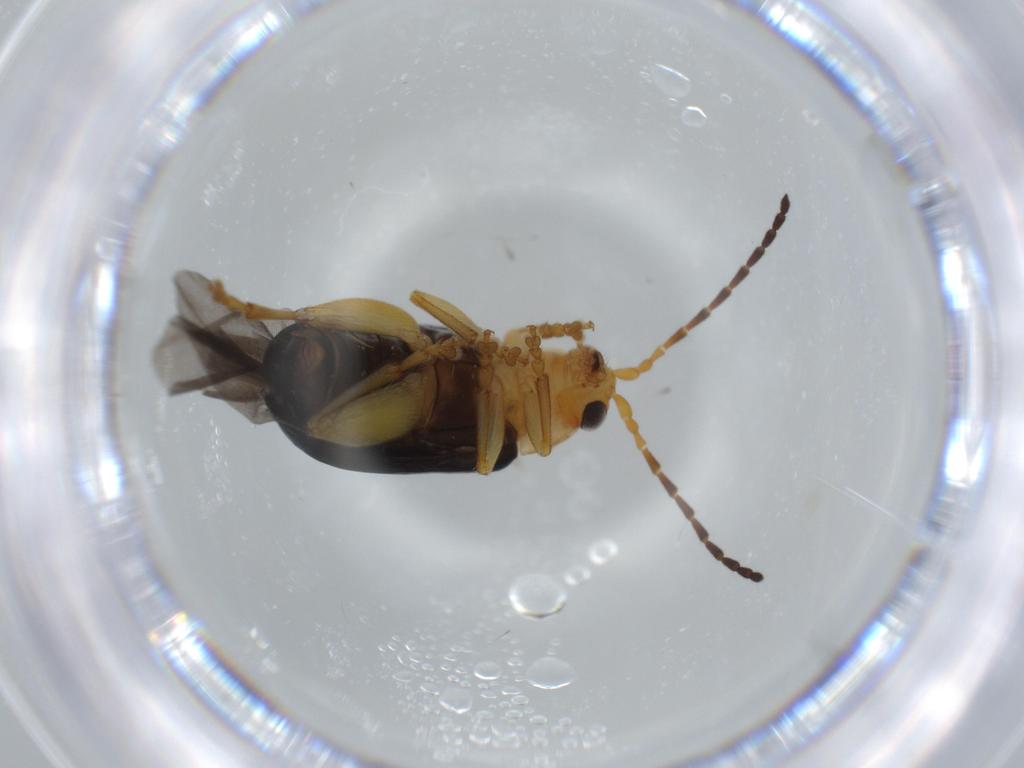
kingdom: Animalia
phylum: Arthropoda
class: Insecta
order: Coleoptera
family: Chrysomelidae
